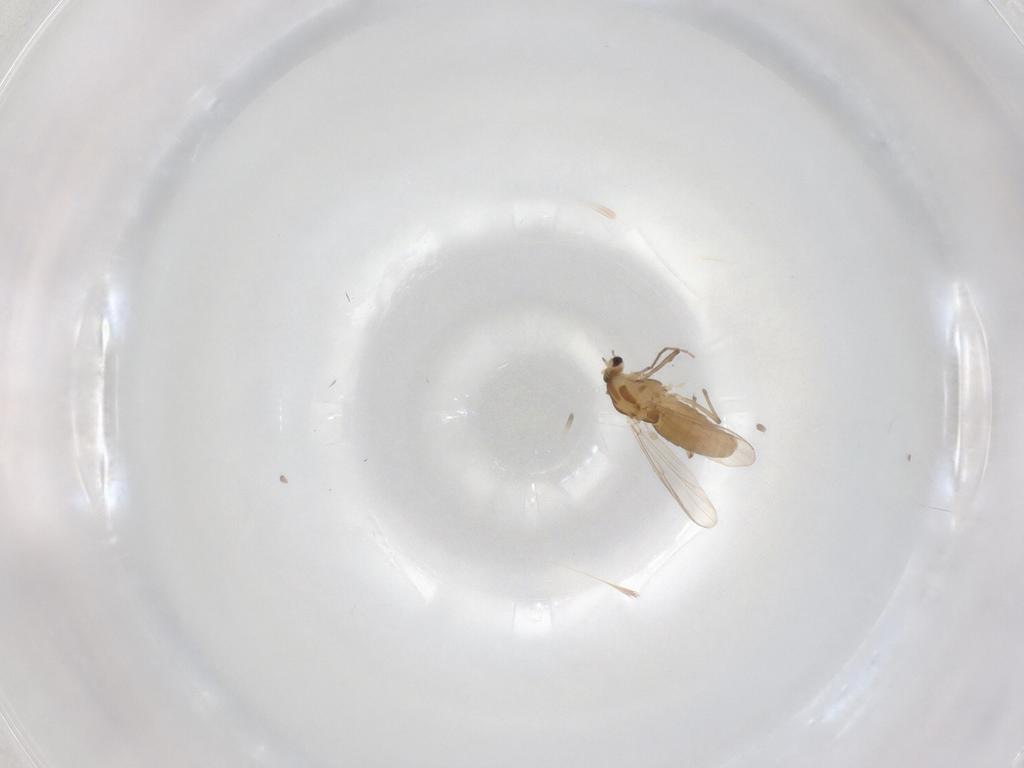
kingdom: Animalia
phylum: Arthropoda
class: Insecta
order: Diptera
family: Chironomidae
